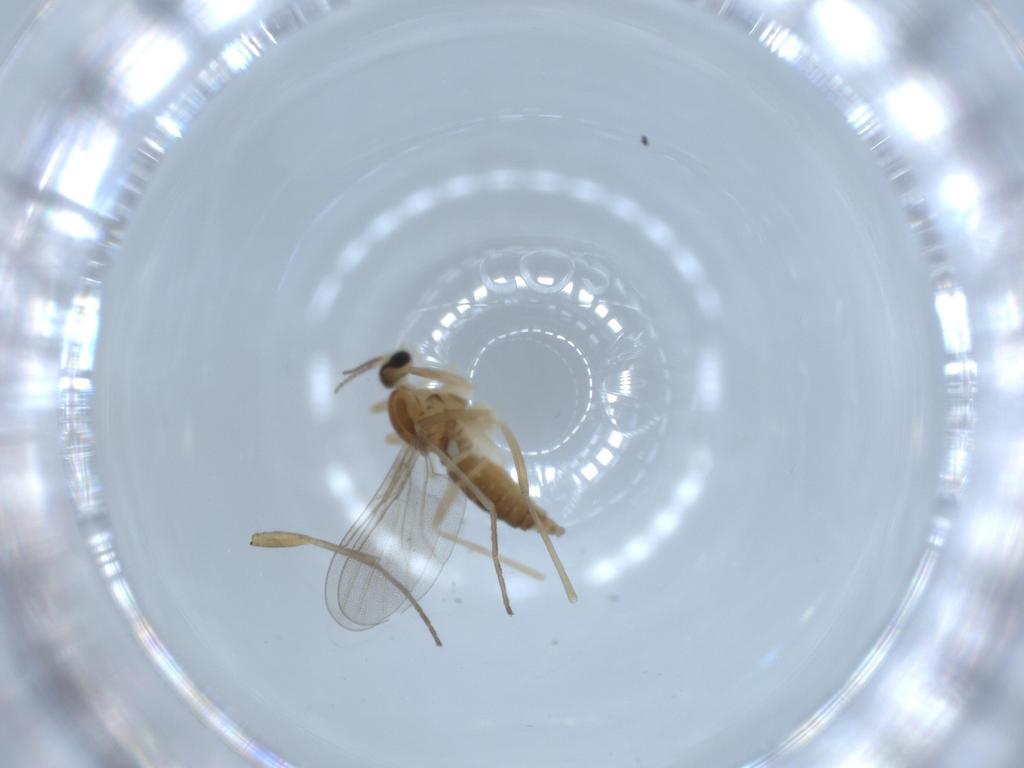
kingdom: Animalia
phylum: Arthropoda
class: Insecta
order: Diptera
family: Cecidomyiidae
